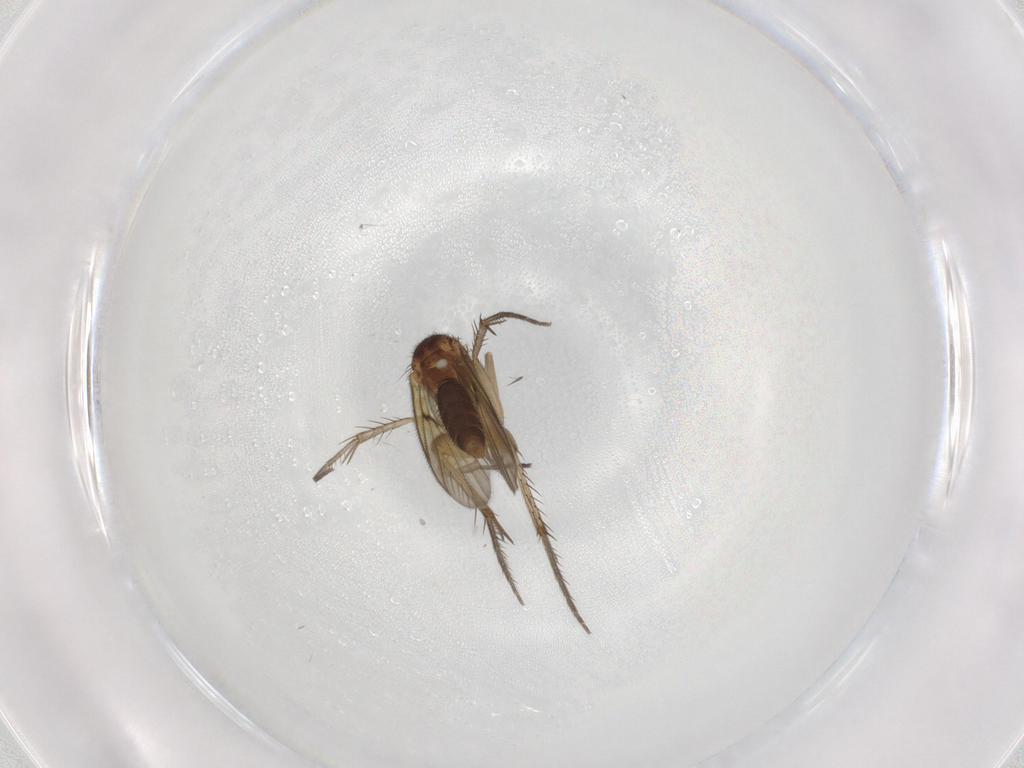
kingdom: Animalia
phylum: Arthropoda
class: Insecta
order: Diptera
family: Mycetophilidae
